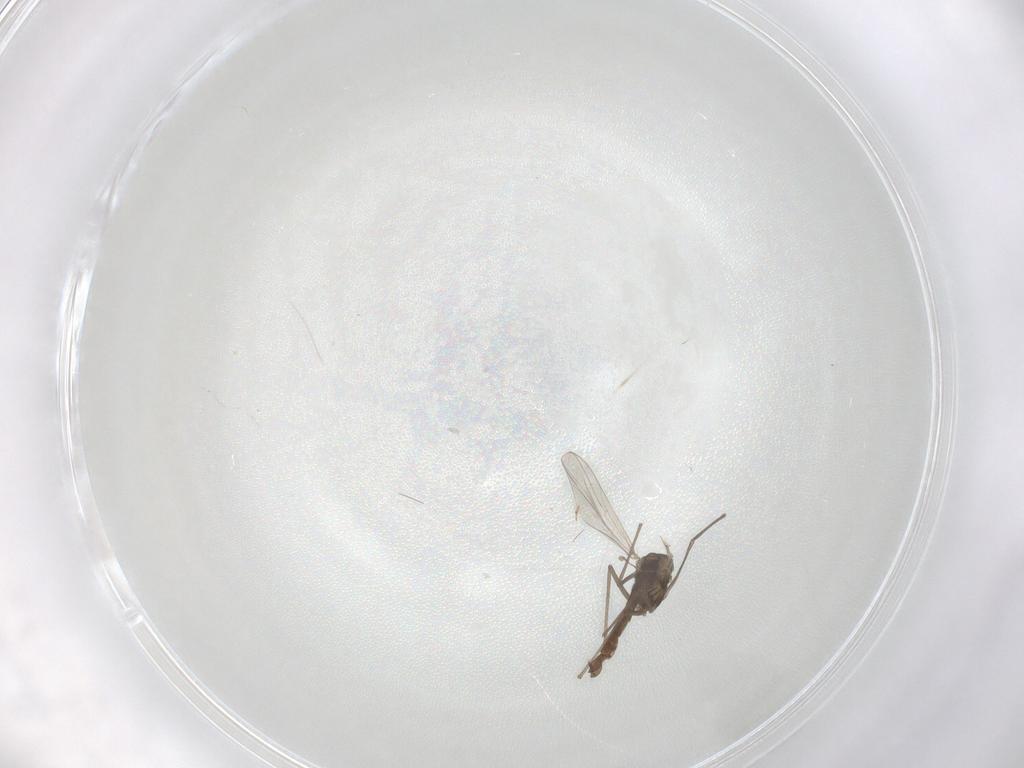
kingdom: Animalia
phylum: Arthropoda
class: Insecta
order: Diptera
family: Chironomidae
